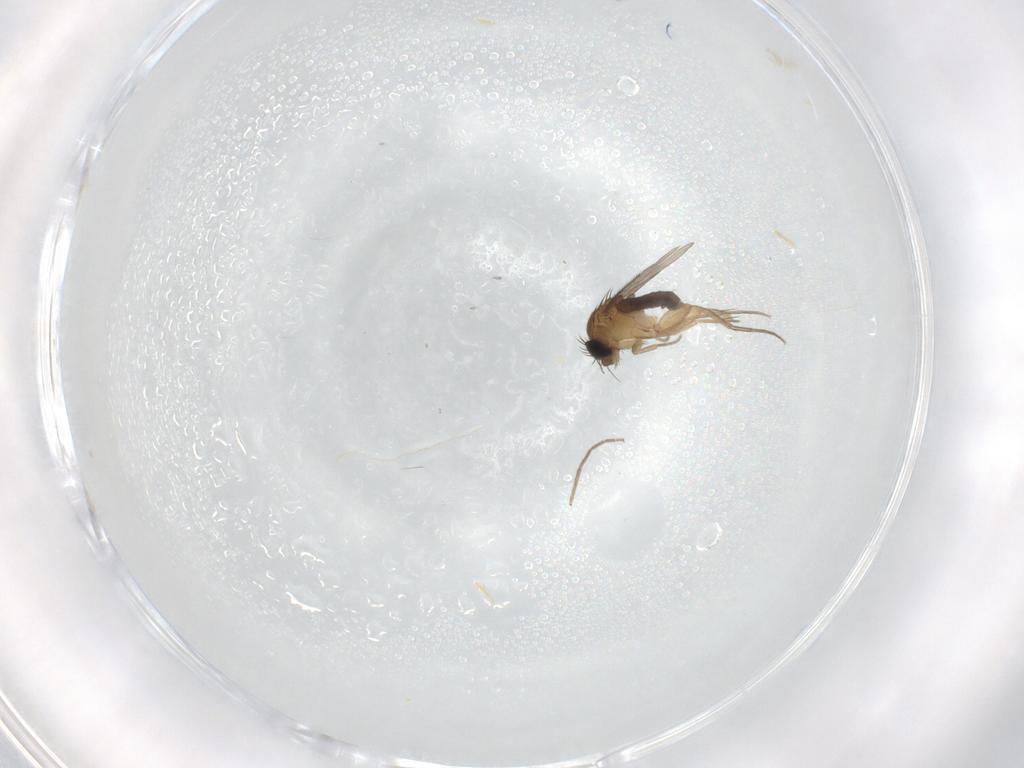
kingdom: Animalia
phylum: Arthropoda
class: Insecta
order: Diptera
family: Phoridae
